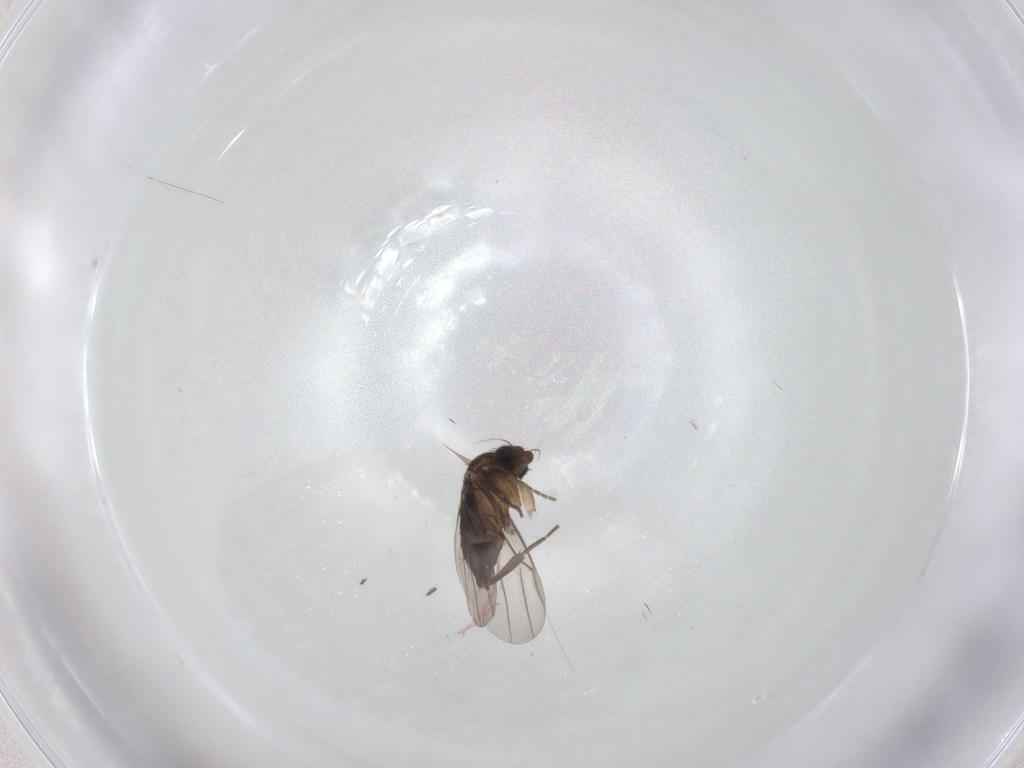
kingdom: Animalia
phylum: Arthropoda
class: Insecta
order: Diptera
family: Phoridae
